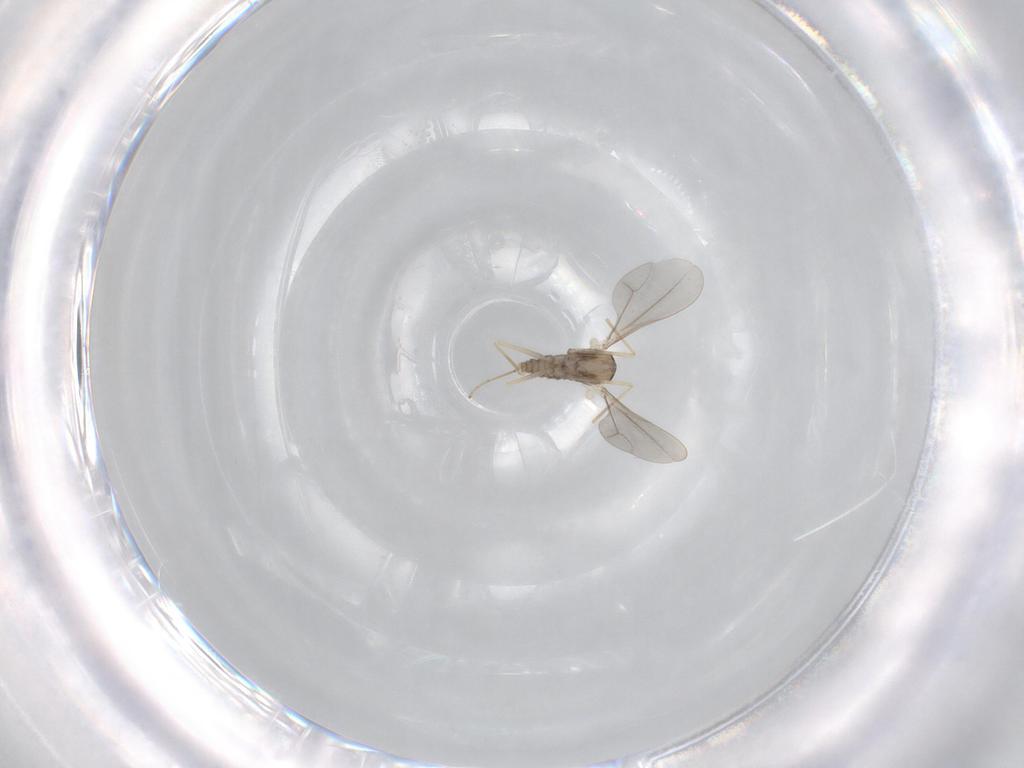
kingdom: Animalia
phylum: Arthropoda
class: Insecta
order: Diptera
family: Cecidomyiidae
